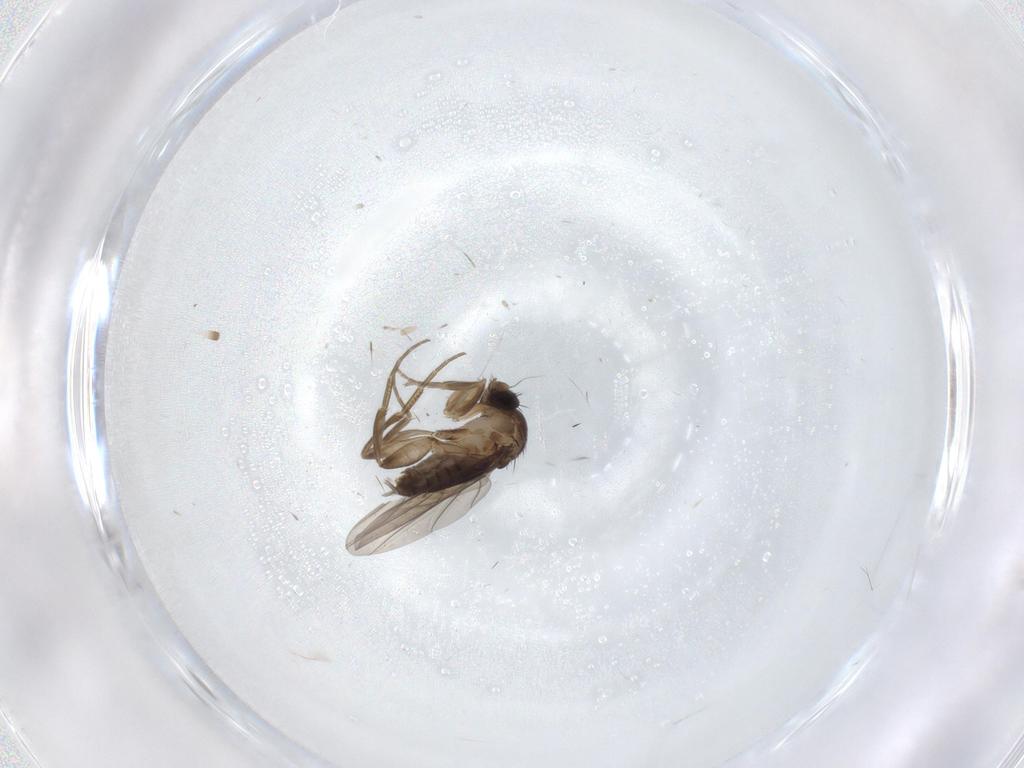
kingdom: Animalia
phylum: Arthropoda
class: Insecta
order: Diptera
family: Phoridae
